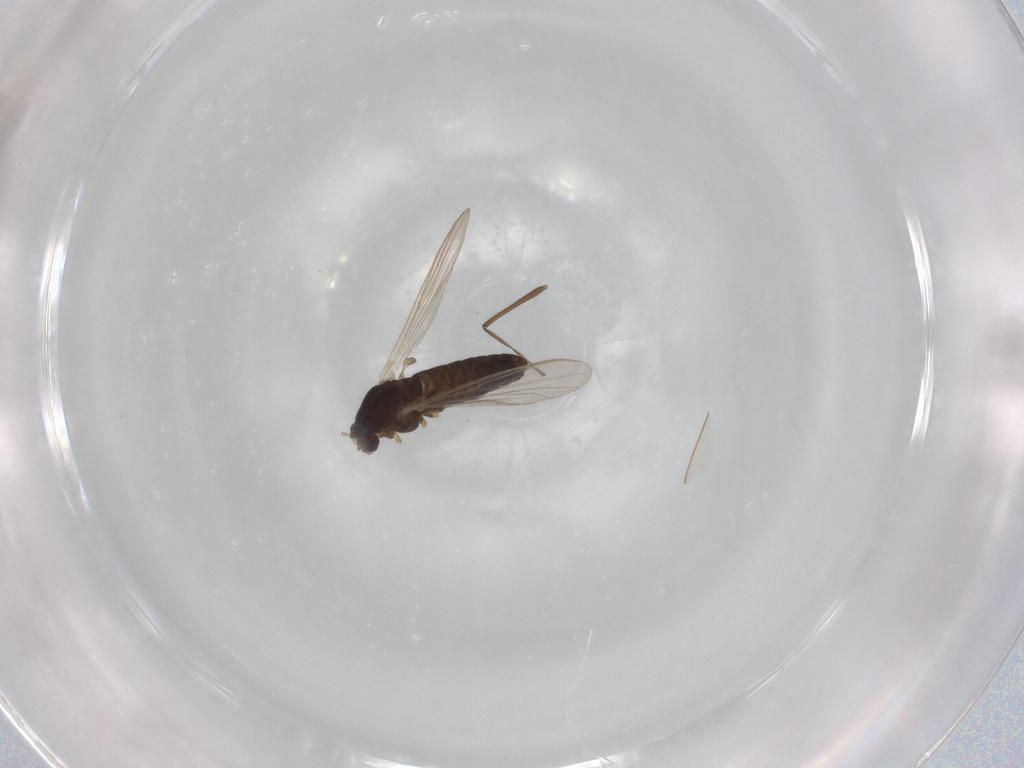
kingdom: Animalia
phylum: Arthropoda
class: Insecta
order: Diptera
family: Chironomidae
